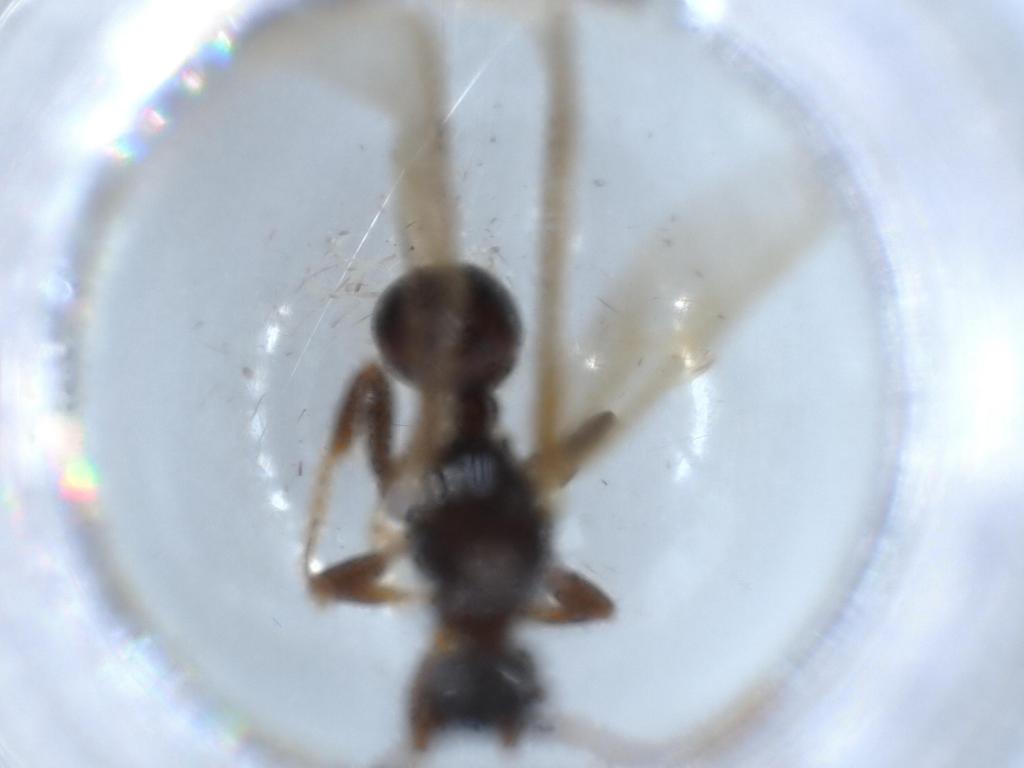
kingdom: Animalia
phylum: Arthropoda
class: Insecta
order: Hymenoptera
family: Formicidae
